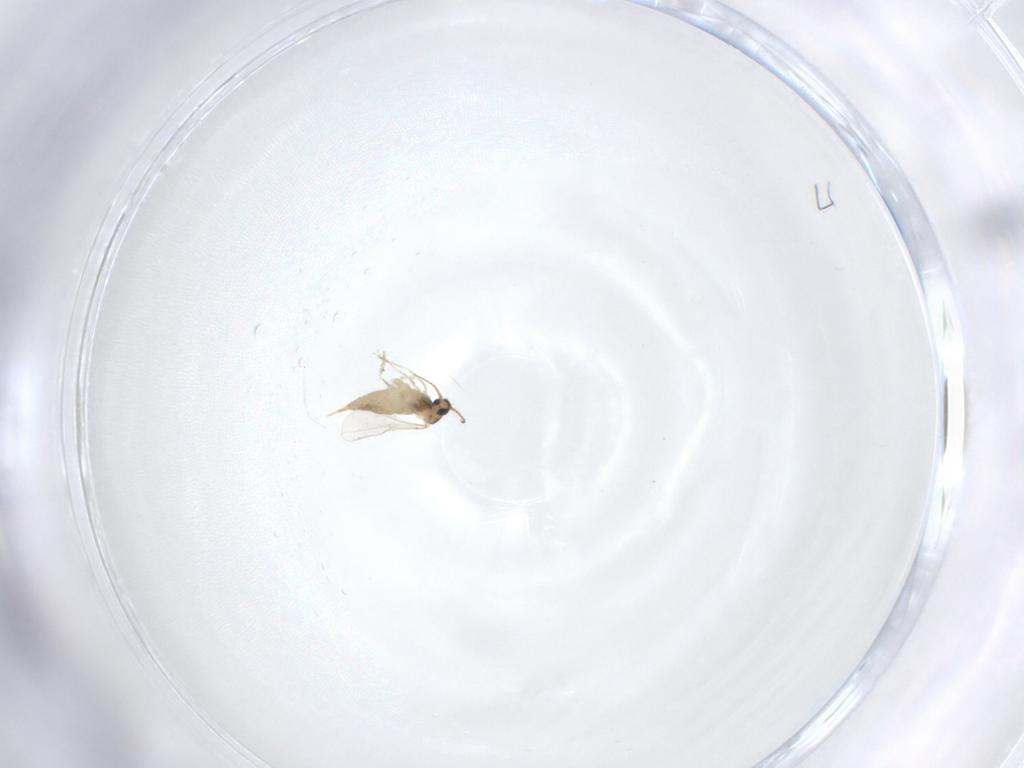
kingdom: Animalia
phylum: Arthropoda
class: Insecta
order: Diptera
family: Cecidomyiidae
